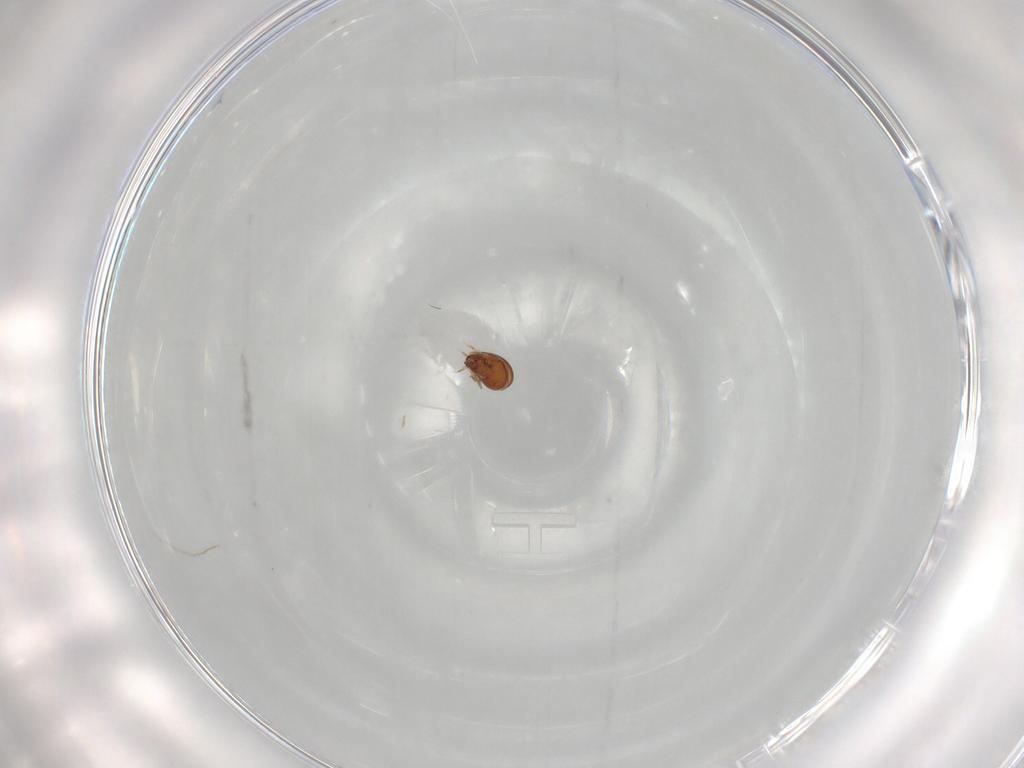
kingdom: Animalia
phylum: Arthropoda
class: Arachnida
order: Sarcoptiformes
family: Tegoribatidae
